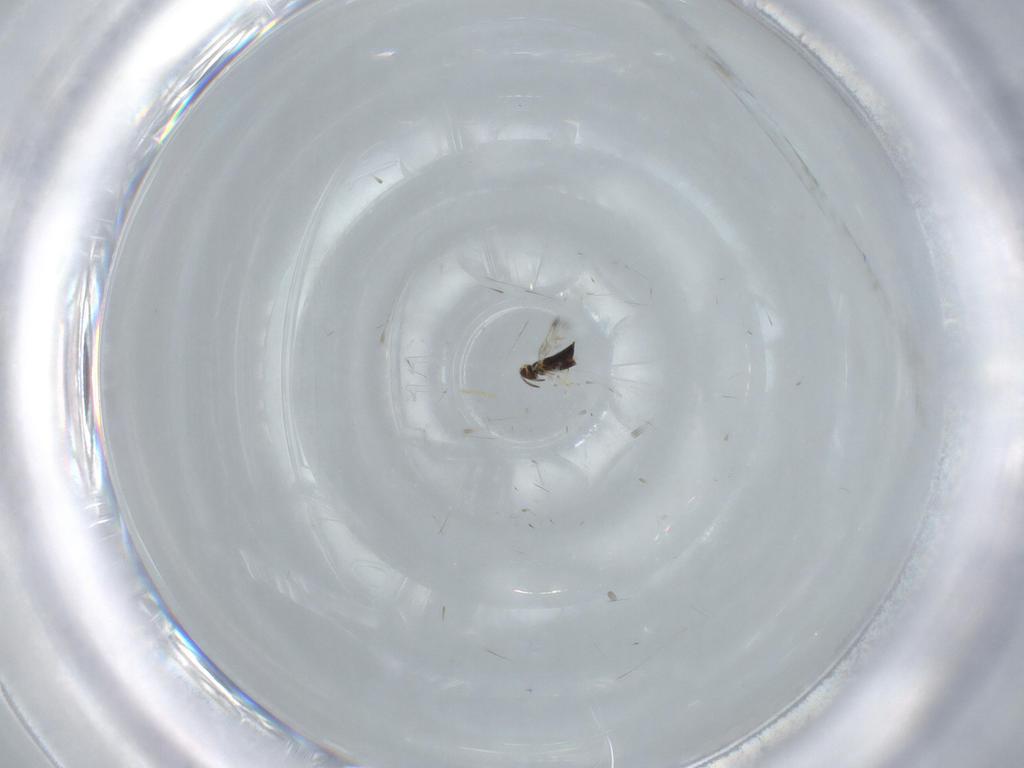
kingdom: Animalia
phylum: Arthropoda
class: Insecta
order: Hymenoptera
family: Signiphoridae
